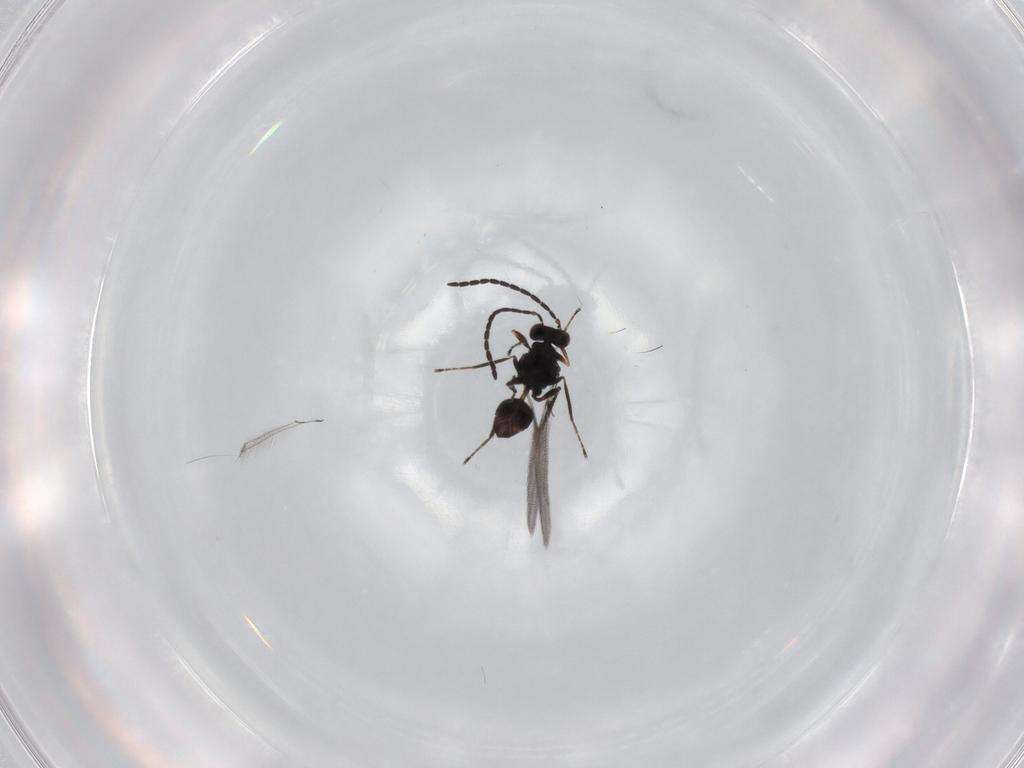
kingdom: Animalia
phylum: Arthropoda
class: Insecta
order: Hymenoptera
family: Mymaridae
